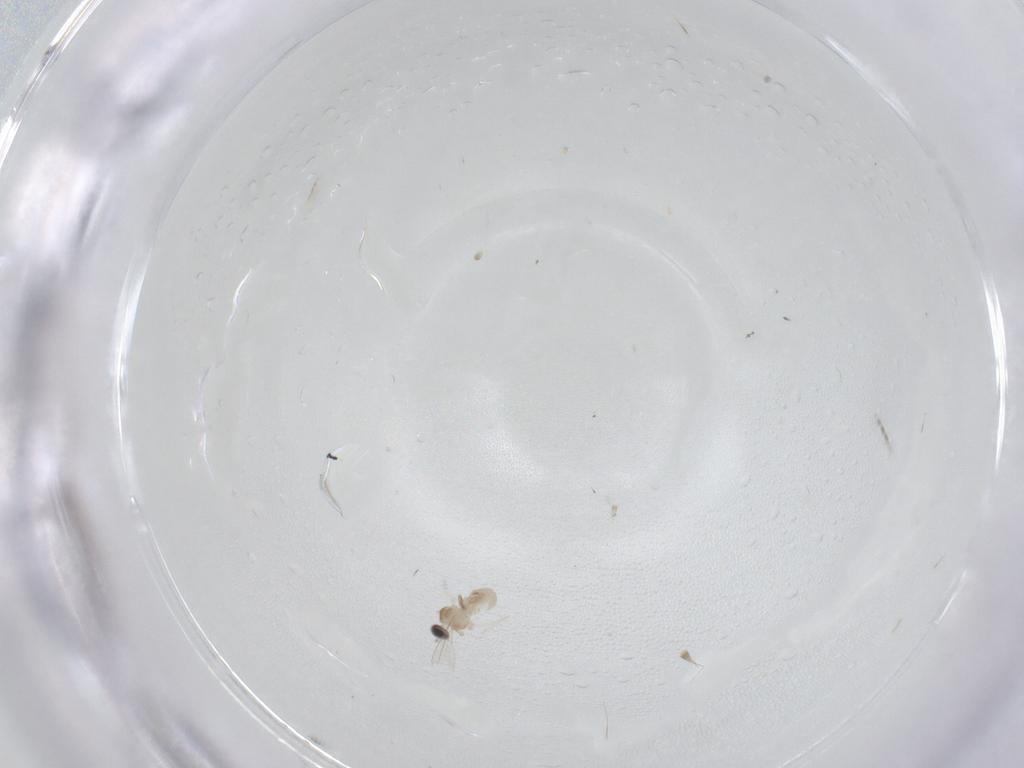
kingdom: Animalia
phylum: Arthropoda
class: Insecta
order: Diptera
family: Cecidomyiidae
